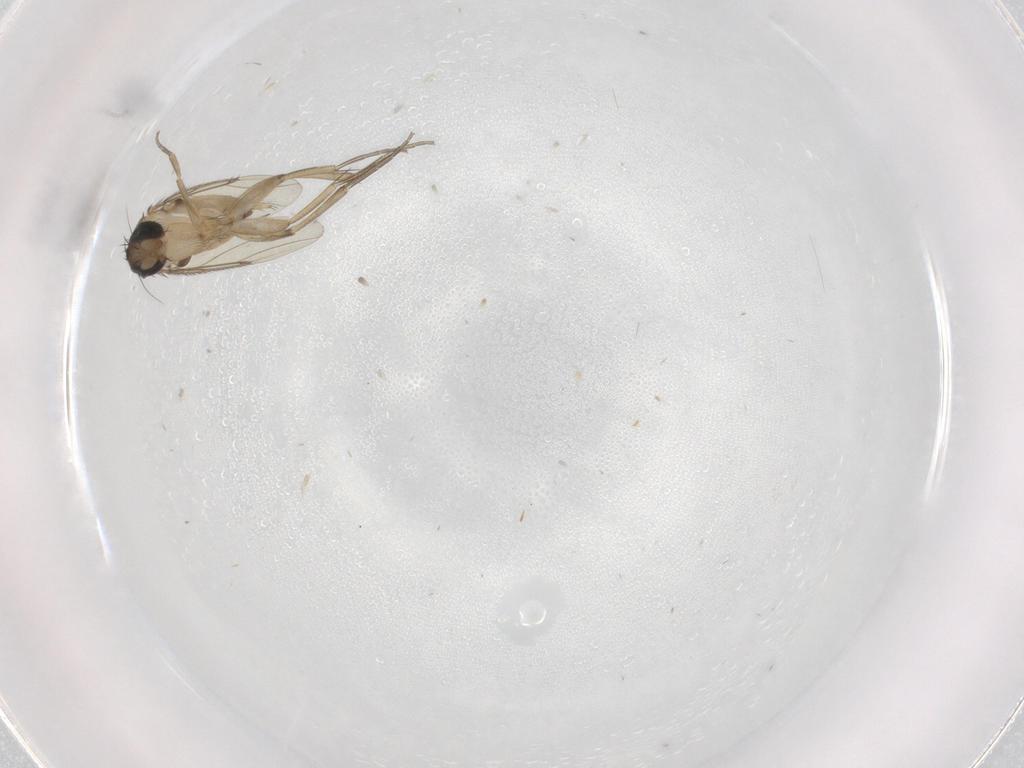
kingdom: Animalia
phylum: Arthropoda
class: Insecta
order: Diptera
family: Phoridae
